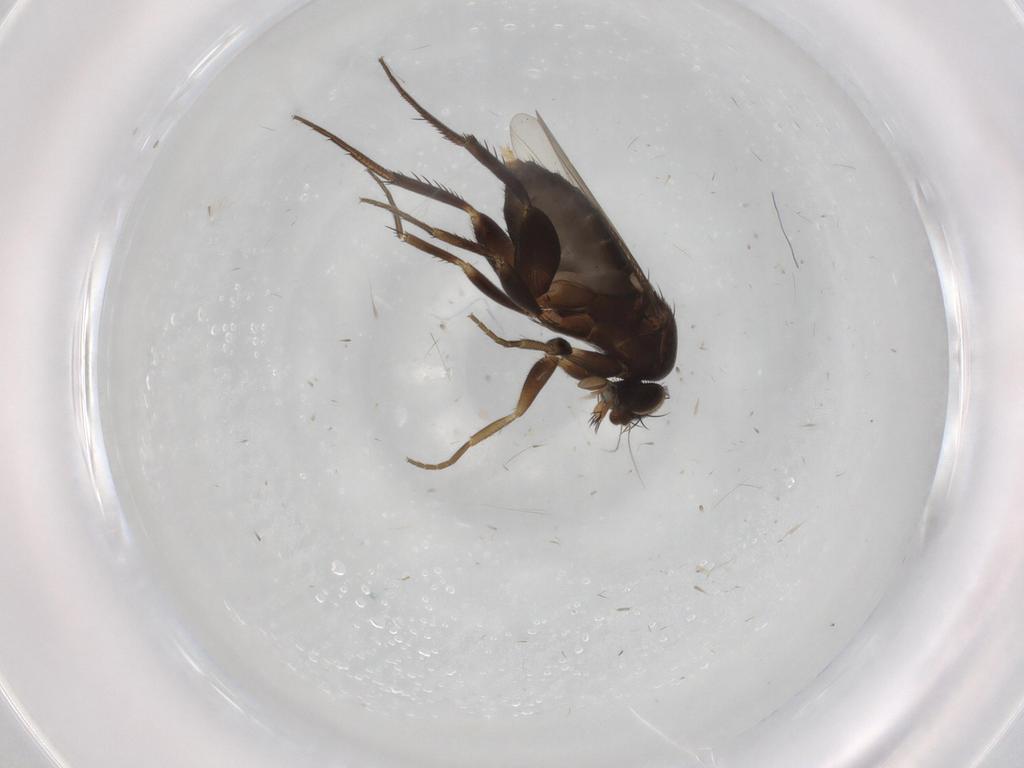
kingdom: Animalia
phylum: Arthropoda
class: Insecta
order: Diptera
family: Phoridae
